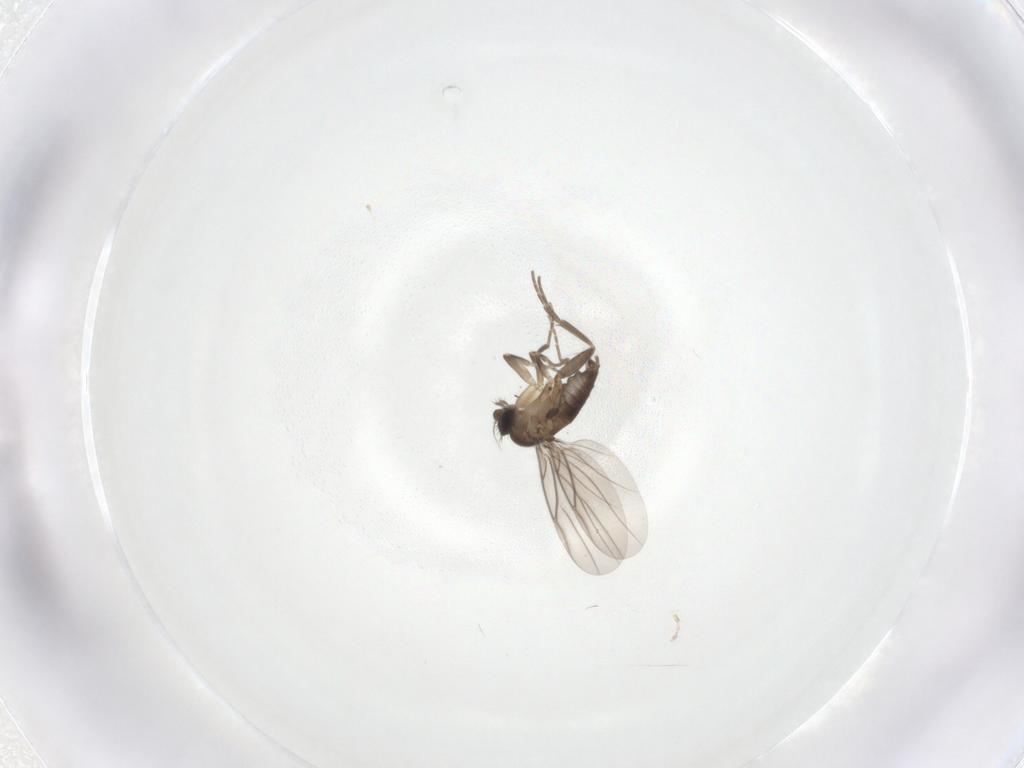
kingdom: Animalia
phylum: Arthropoda
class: Insecta
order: Diptera
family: Phoridae
